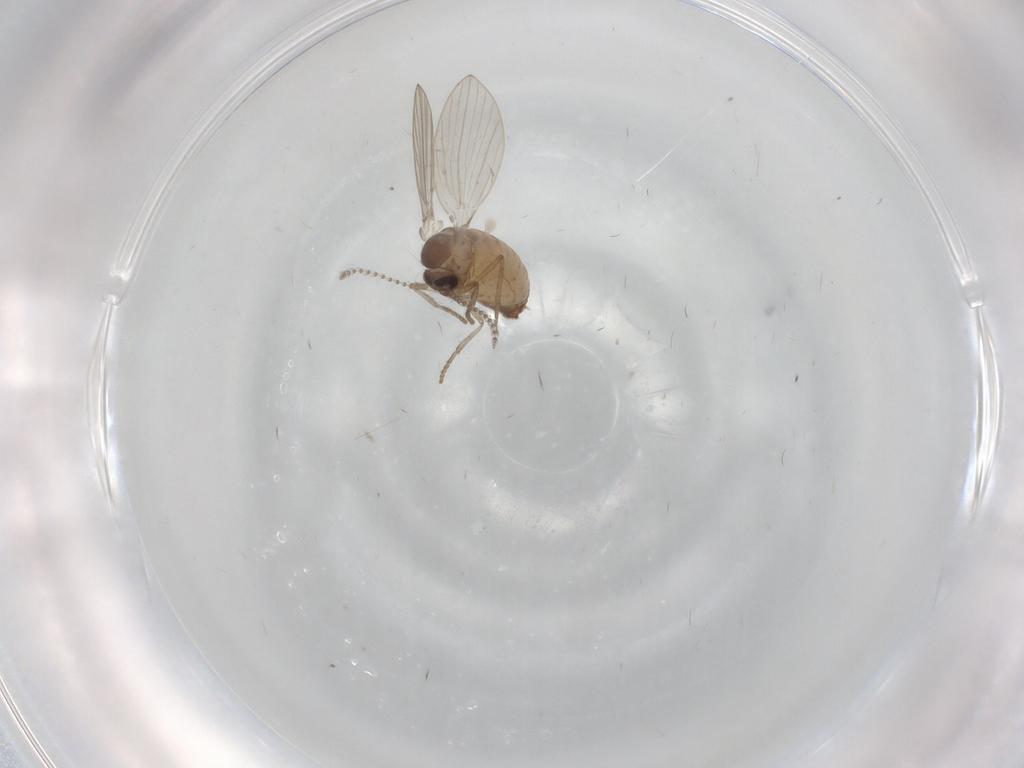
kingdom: Animalia
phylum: Arthropoda
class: Insecta
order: Diptera
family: Psychodidae
